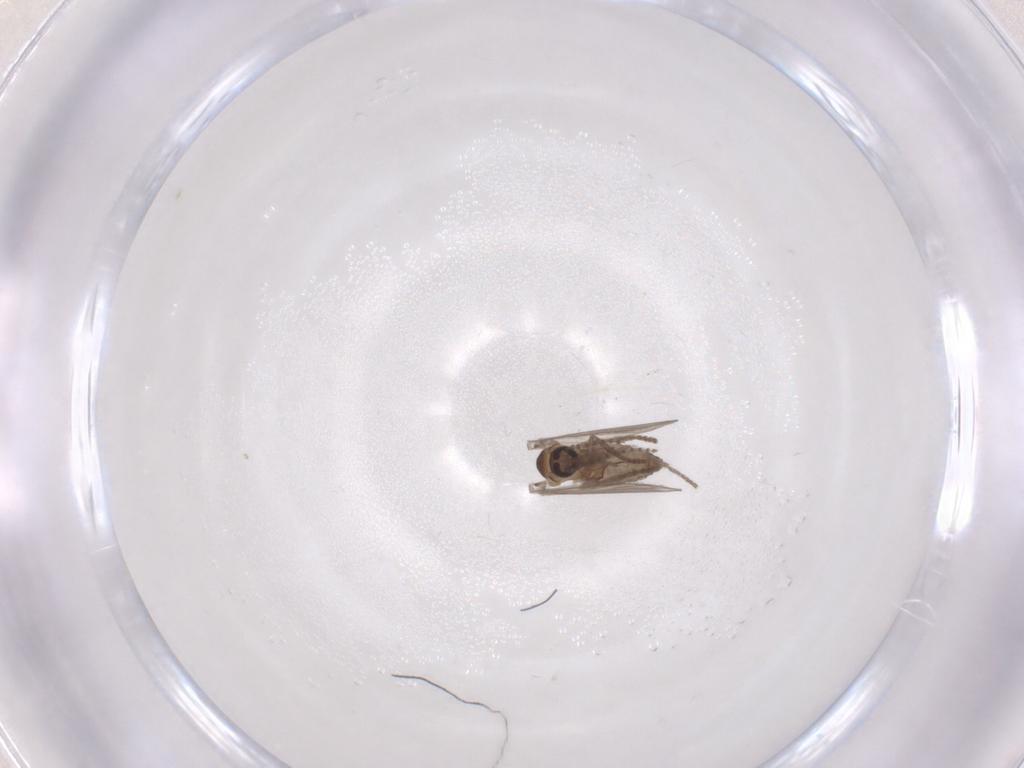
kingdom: Animalia
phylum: Arthropoda
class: Insecta
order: Diptera
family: Psychodidae
